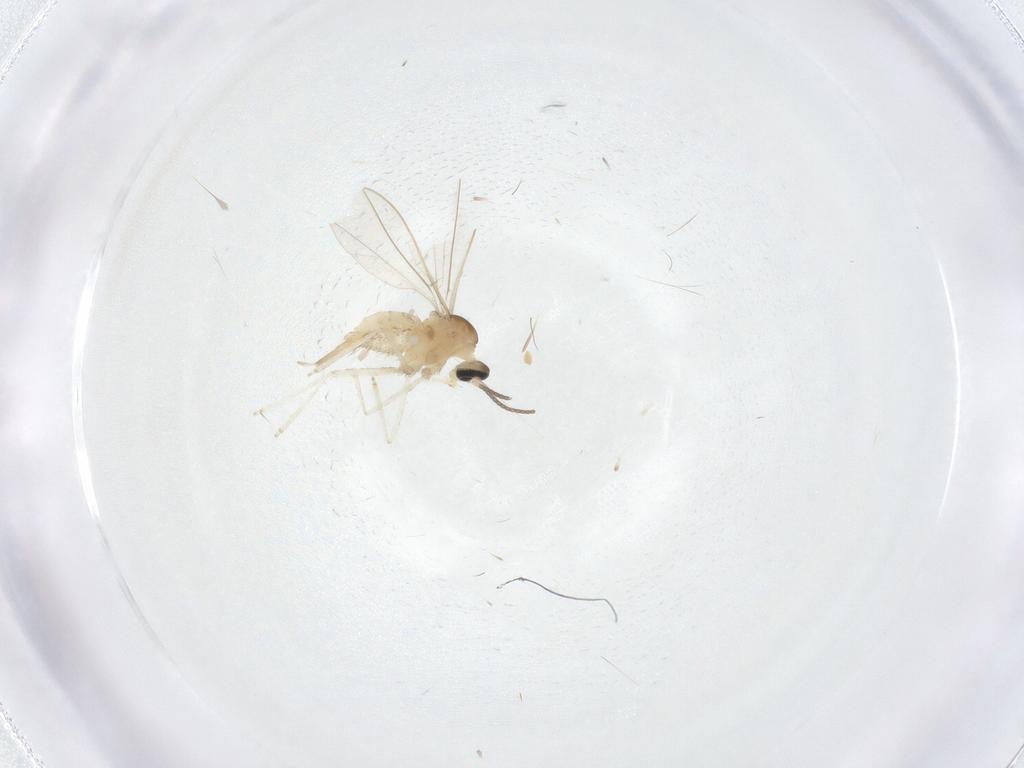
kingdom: Animalia
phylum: Arthropoda
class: Insecta
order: Diptera
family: Cecidomyiidae
